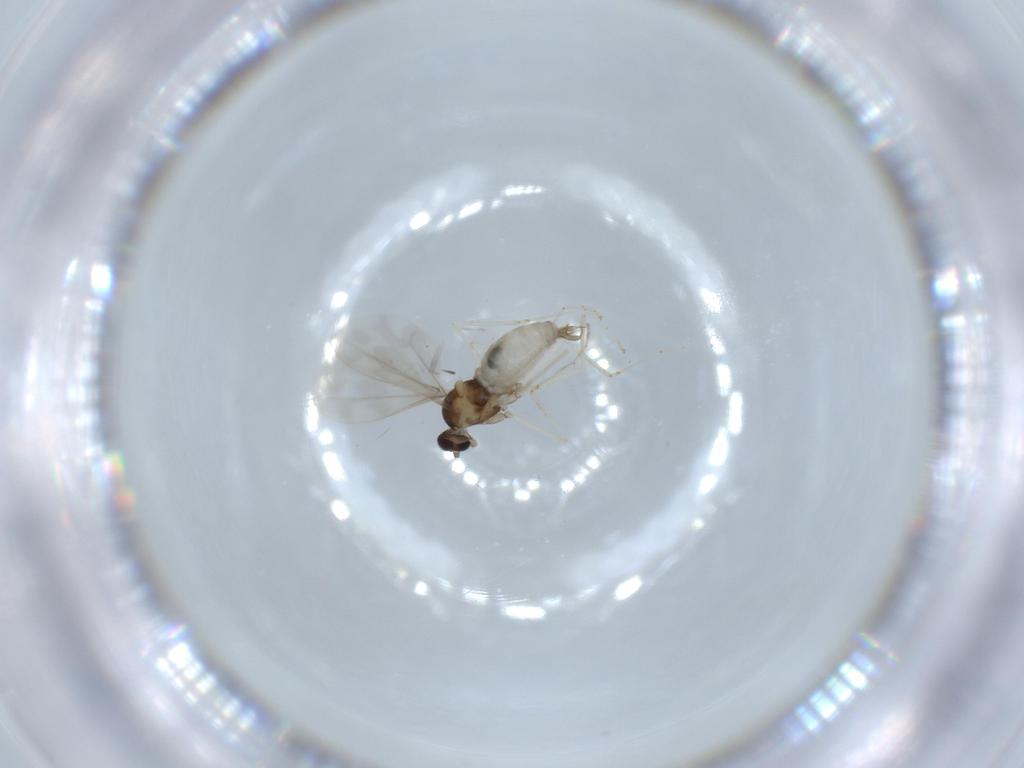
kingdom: Animalia
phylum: Arthropoda
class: Insecta
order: Diptera
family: Cecidomyiidae
